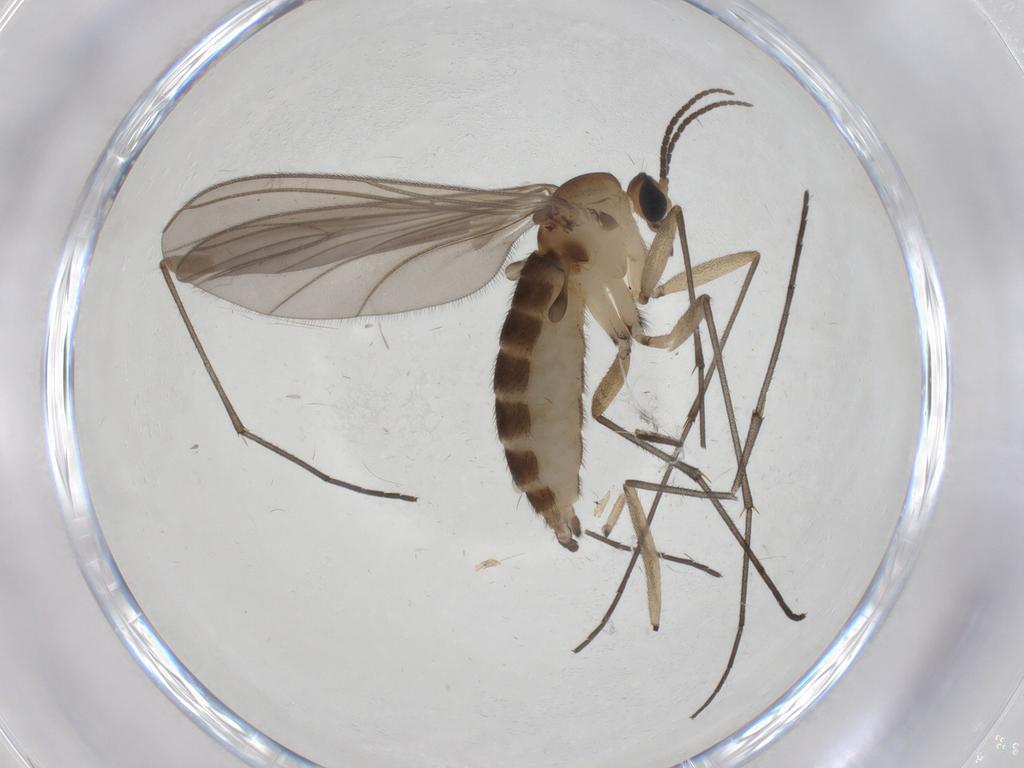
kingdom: Animalia
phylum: Arthropoda
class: Insecta
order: Diptera
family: Sciaridae
